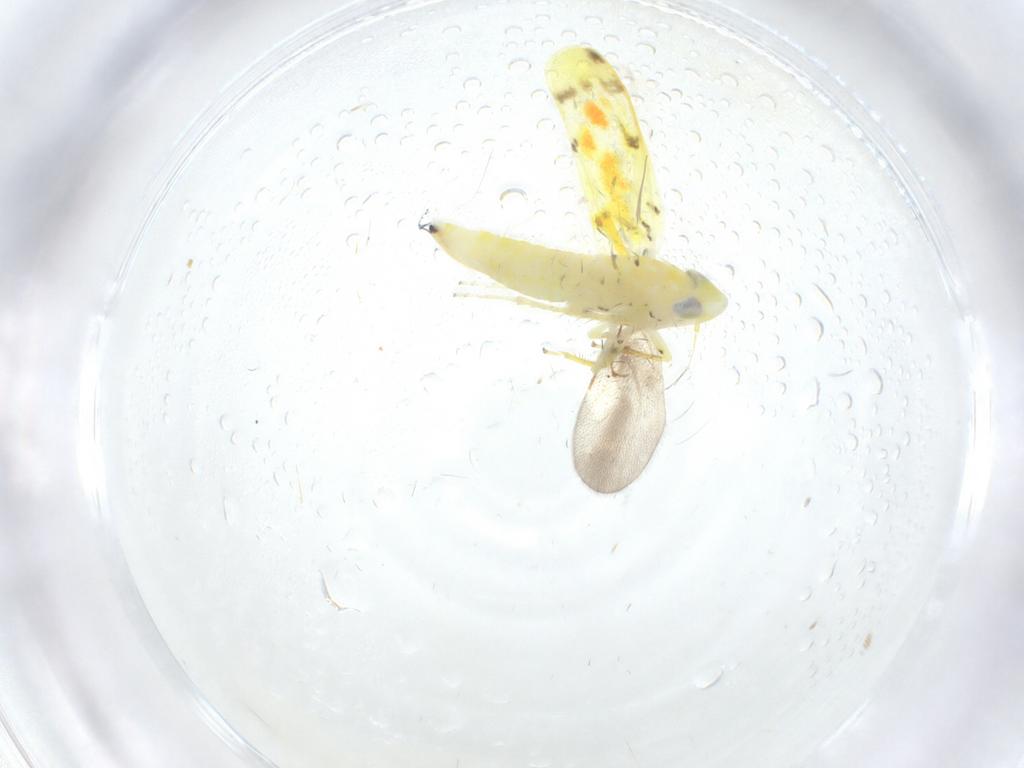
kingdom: Animalia
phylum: Arthropoda
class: Insecta
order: Hemiptera
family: Cicadellidae
